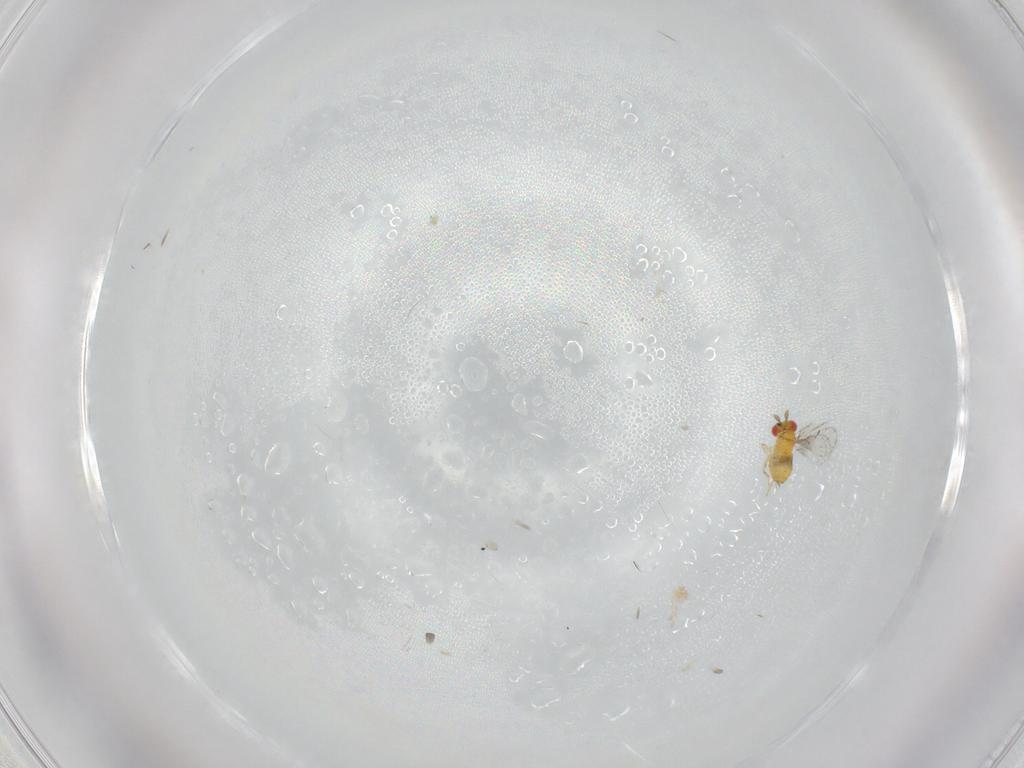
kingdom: Animalia
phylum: Arthropoda
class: Insecta
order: Hymenoptera
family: Trichogrammatidae
